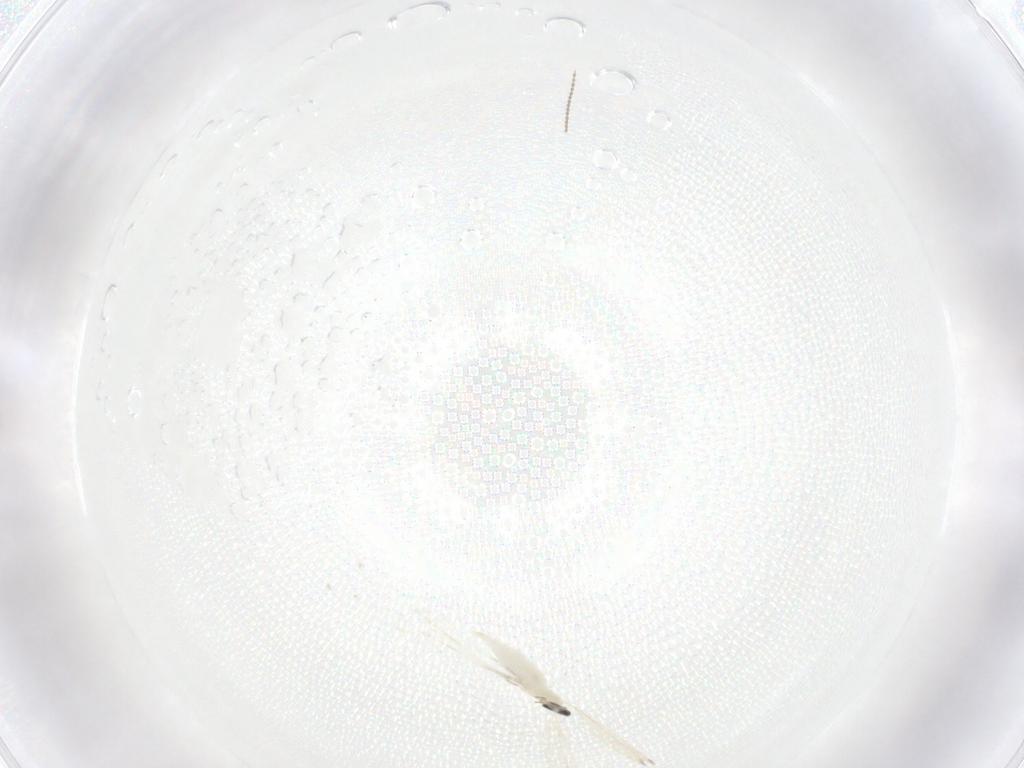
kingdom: Animalia
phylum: Arthropoda
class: Insecta
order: Diptera
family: Cecidomyiidae
